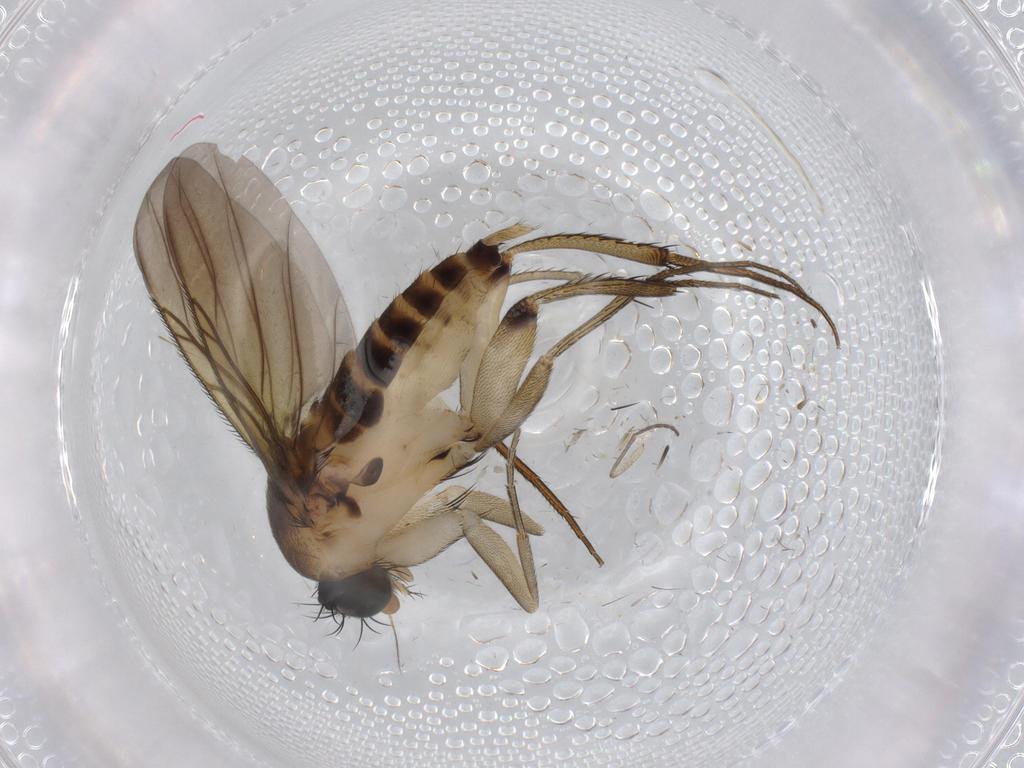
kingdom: Animalia
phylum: Arthropoda
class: Insecta
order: Diptera
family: Phoridae
